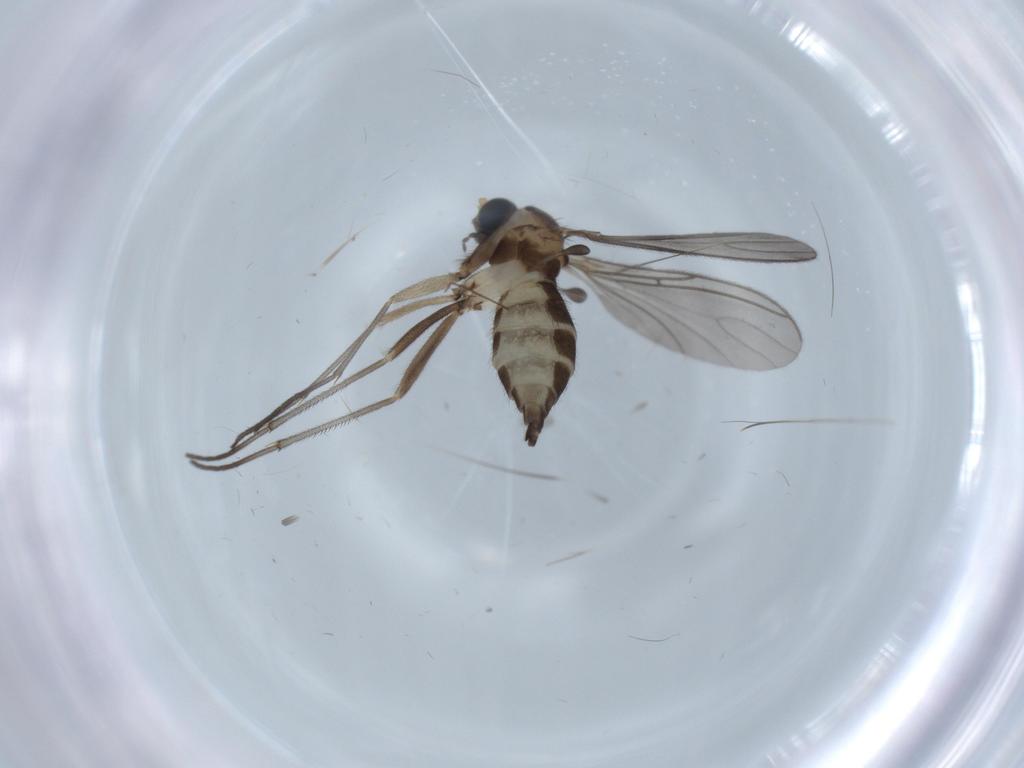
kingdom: Animalia
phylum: Arthropoda
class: Insecta
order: Diptera
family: Sciaridae
